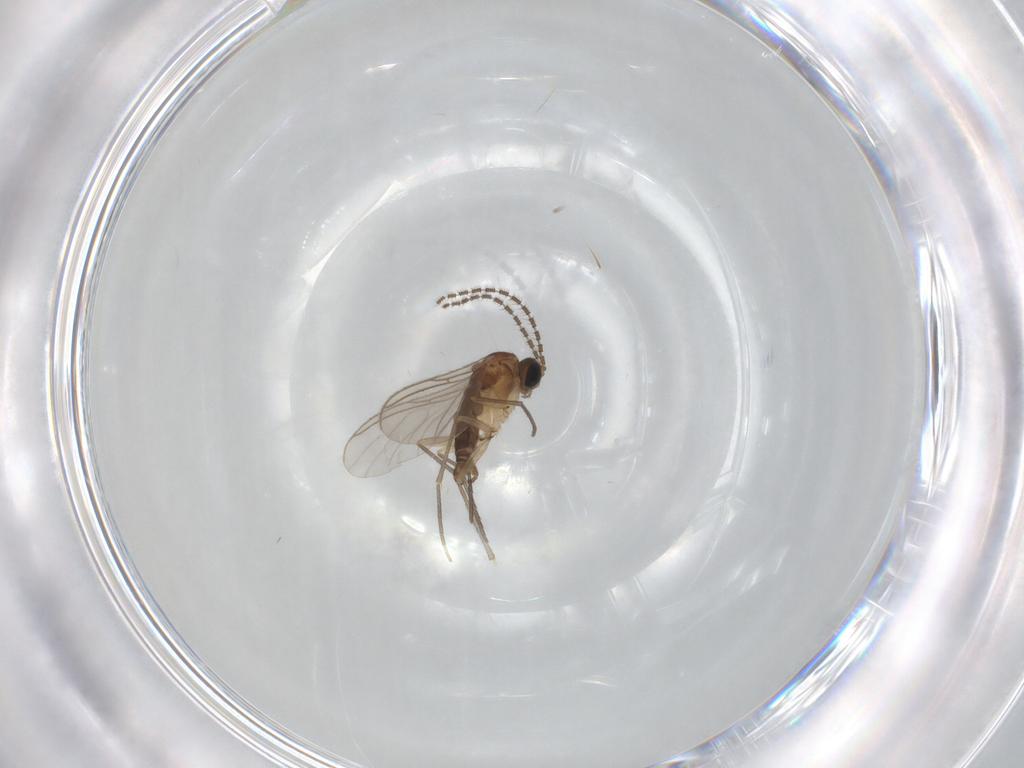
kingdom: Animalia
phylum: Arthropoda
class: Insecta
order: Diptera
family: Sciaridae
